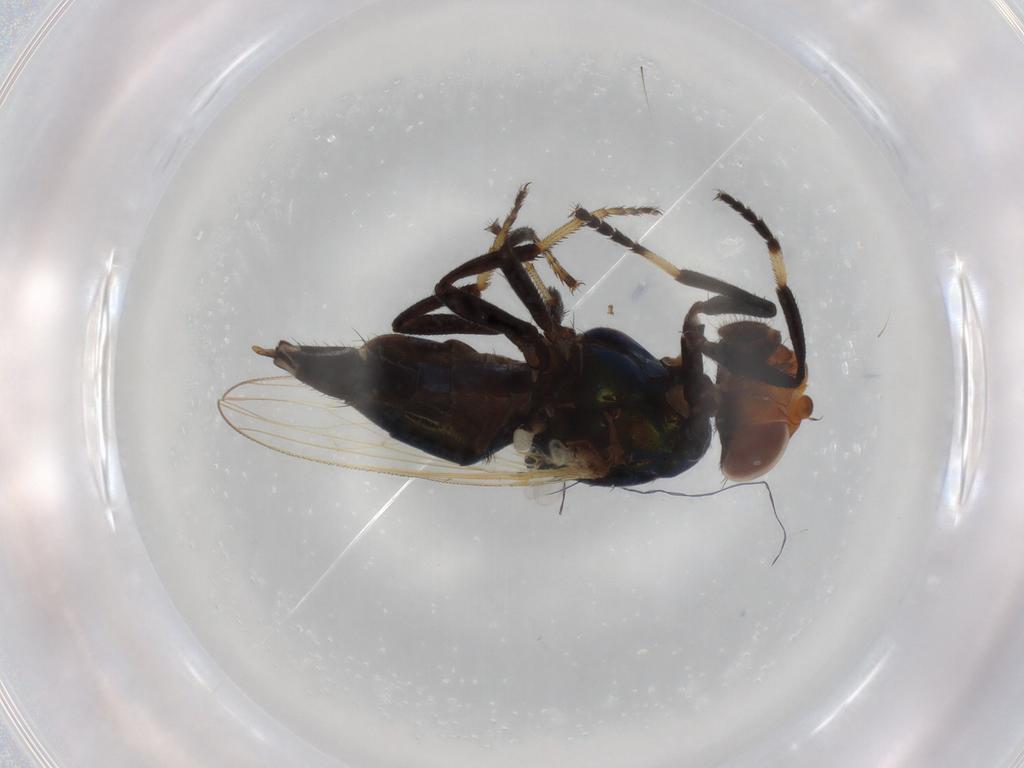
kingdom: Animalia
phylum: Arthropoda
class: Insecta
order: Diptera
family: Ulidiidae
